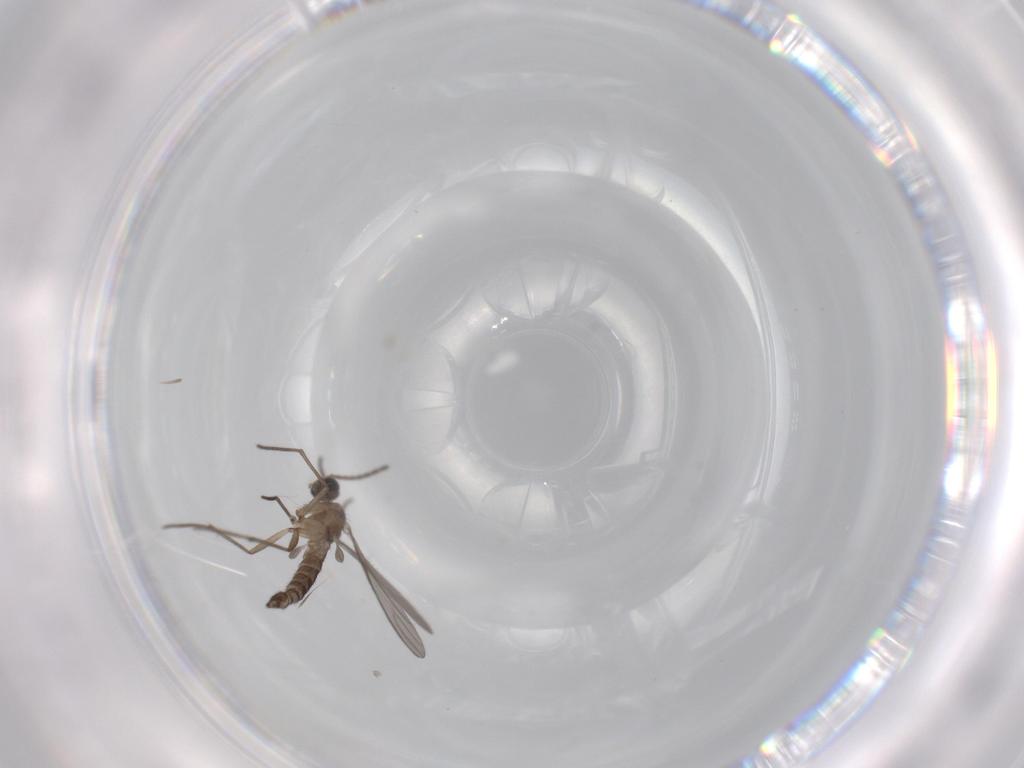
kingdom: Animalia
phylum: Arthropoda
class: Insecta
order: Diptera
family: Sciaridae
